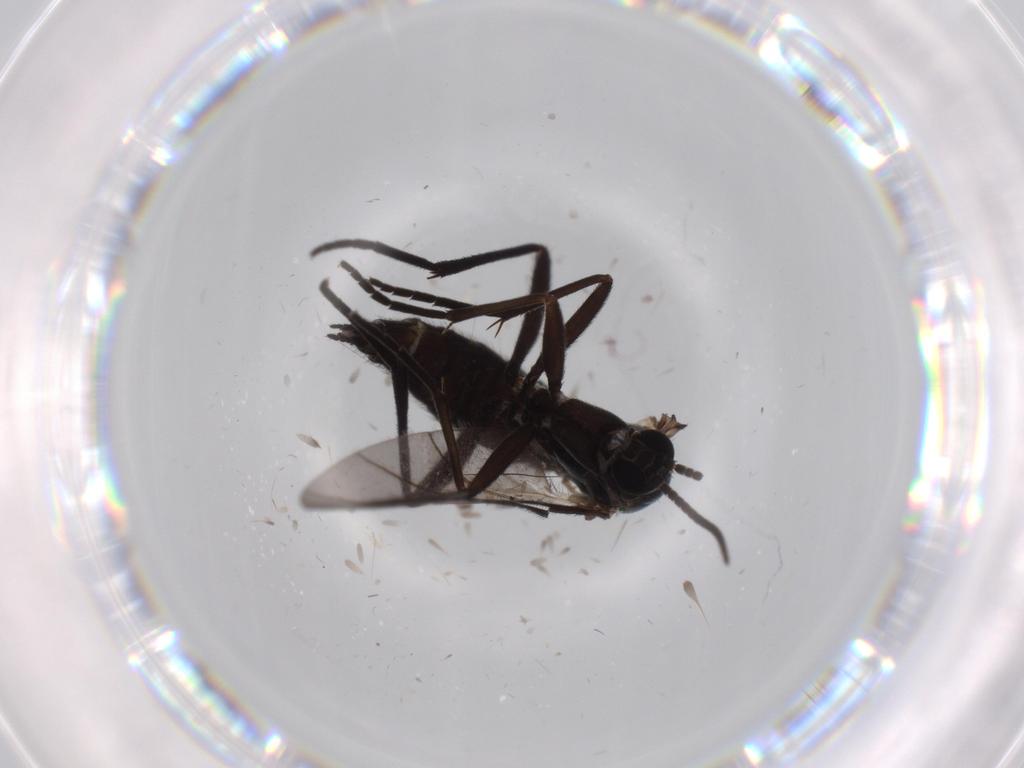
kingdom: Animalia
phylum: Arthropoda
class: Insecta
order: Diptera
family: Sciaridae
